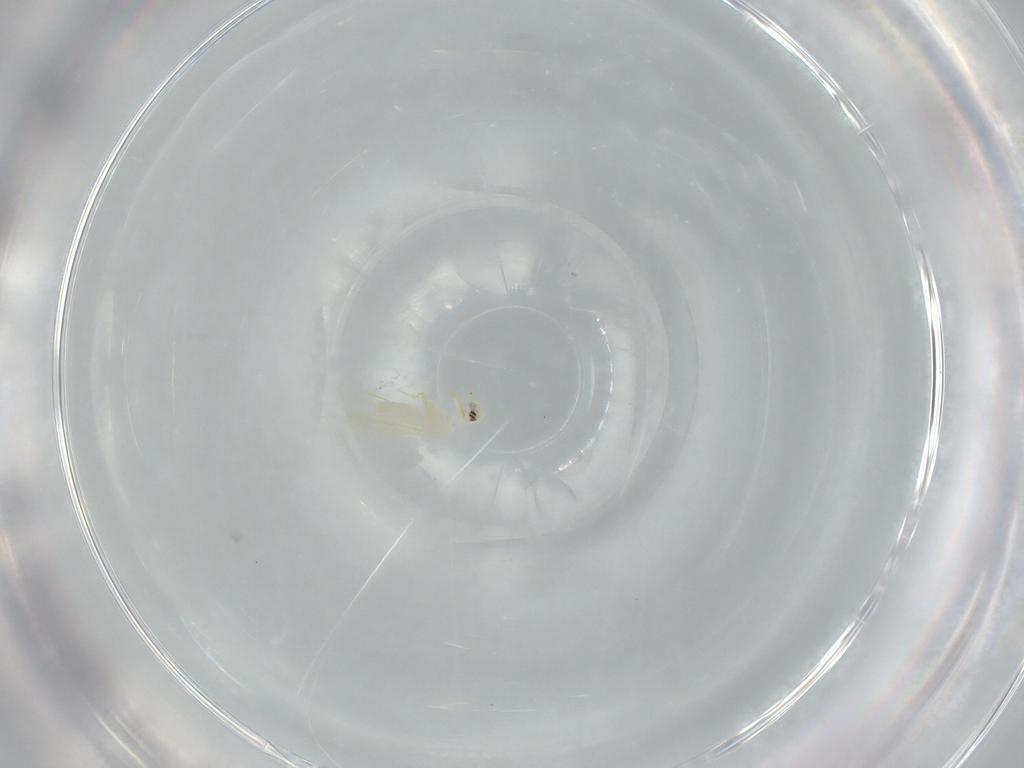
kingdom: Animalia
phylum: Arthropoda
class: Insecta
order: Hemiptera
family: Aleyrodidae
